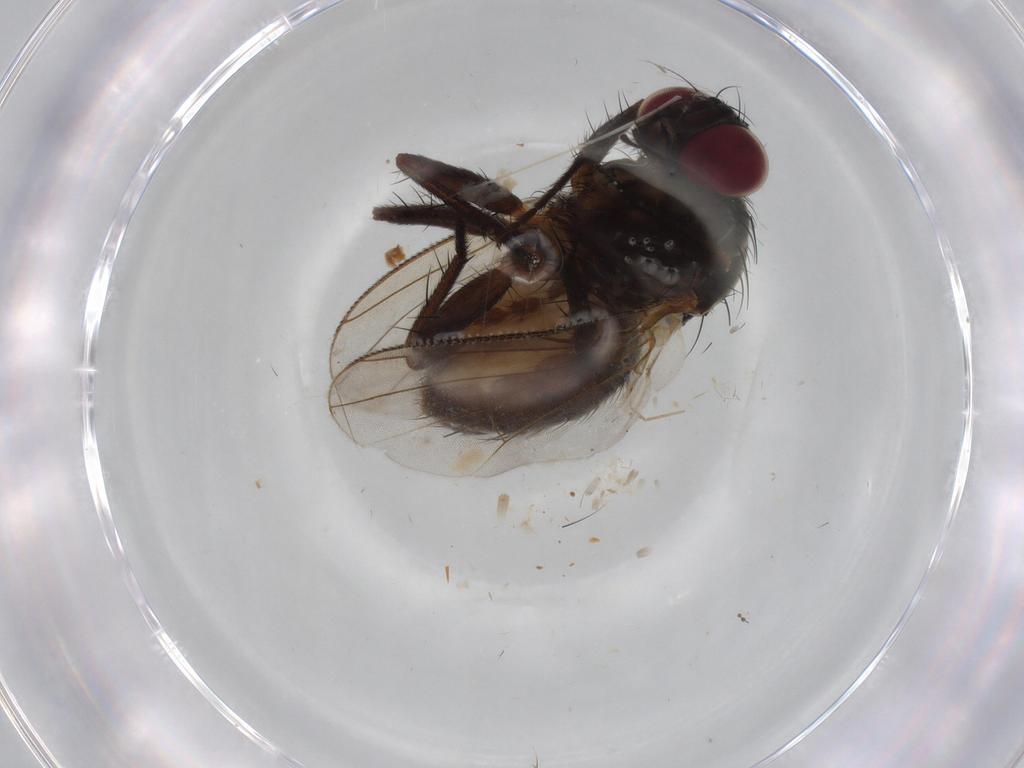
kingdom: Animalia
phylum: Arthropoda
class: Insecta
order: Diptera
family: Muscidae
